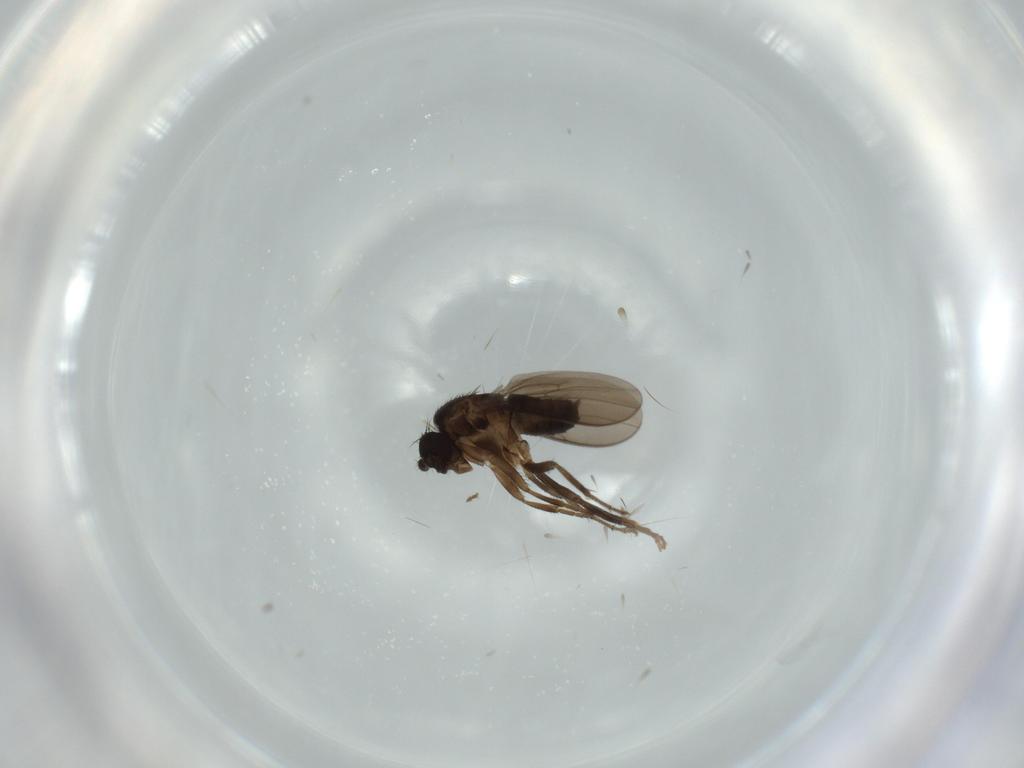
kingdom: Animalia
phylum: Arthropoda
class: Insecta
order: Diptera
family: Sphaeroceridae
